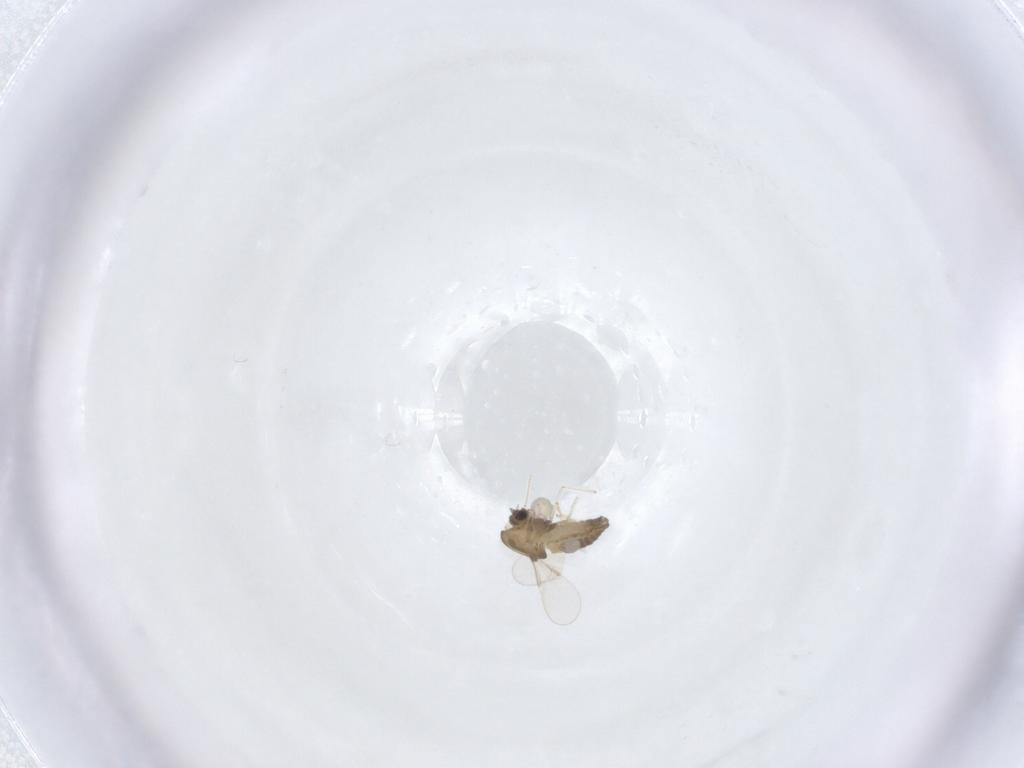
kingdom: Animalia
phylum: Arthropoda
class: Insecta
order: Diptera
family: Chironomidae
